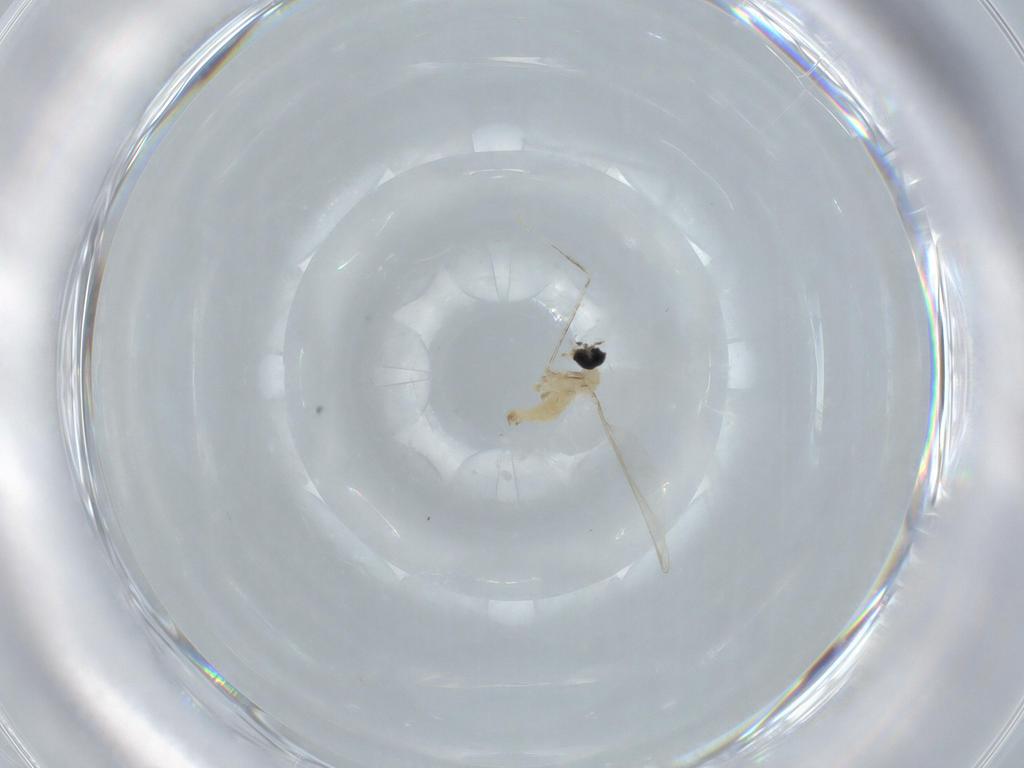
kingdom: Animalia
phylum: Arthropoda
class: Insecta
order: Diptera
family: Cecidomyiidae
